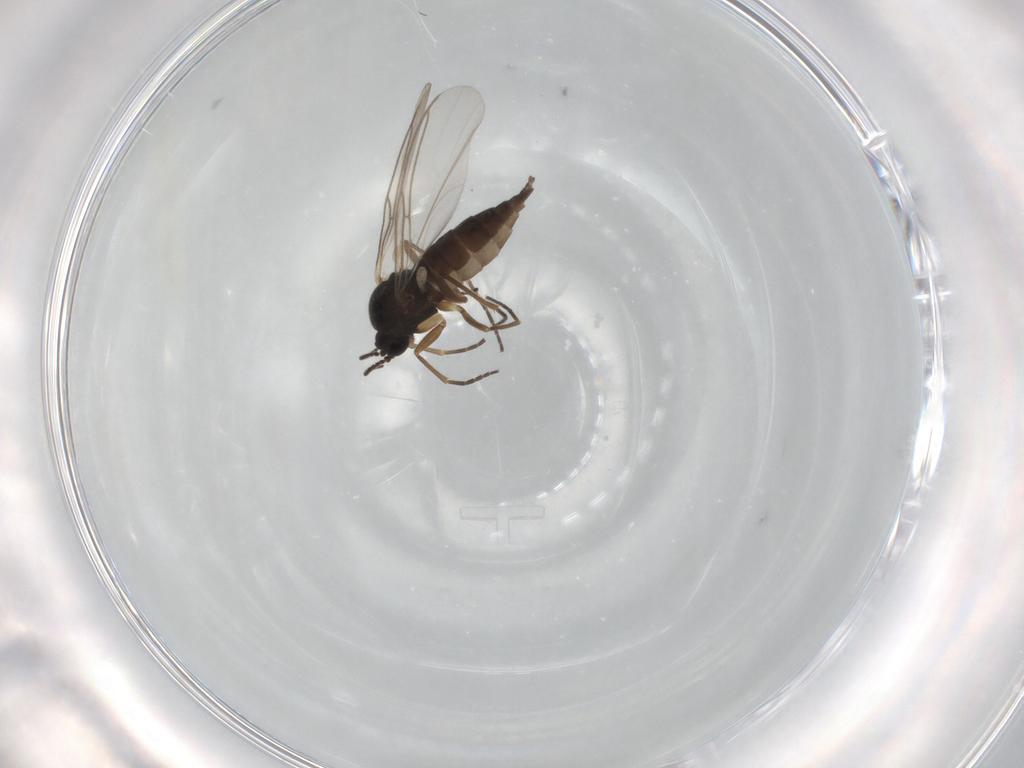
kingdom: Animalia
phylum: Arthropoda
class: Insecta
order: Diptera
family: Sciaridae
